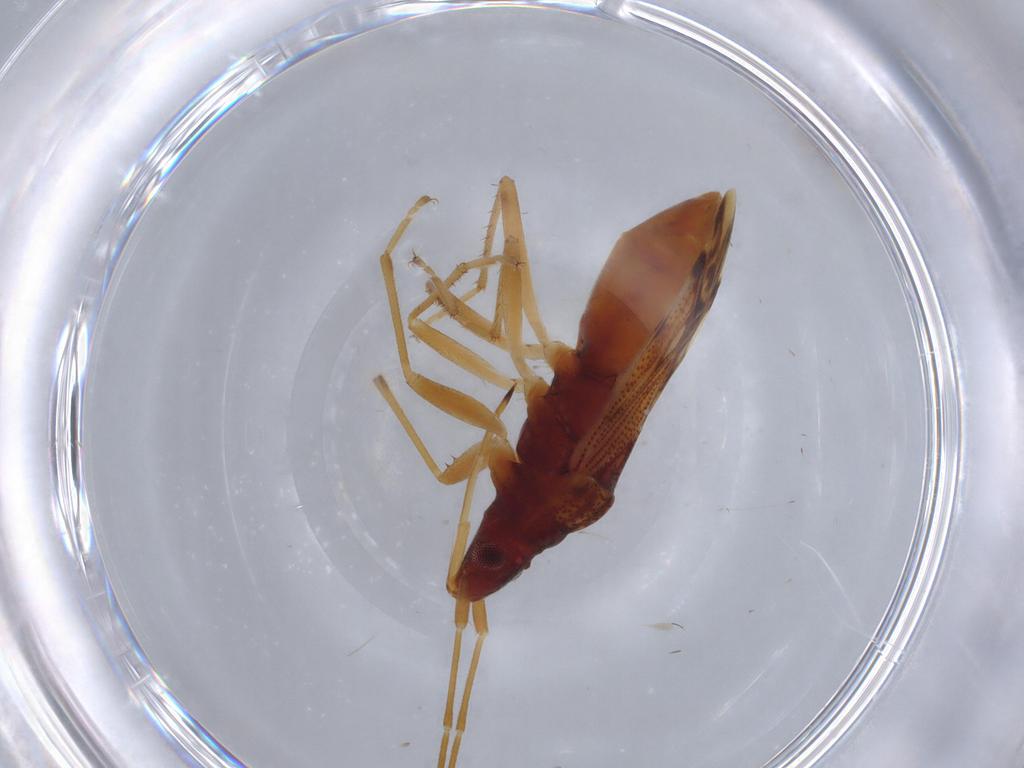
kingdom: Animalia
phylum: Arthropoda
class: Insecta
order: Hemiptera
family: Rhyparochromidae
